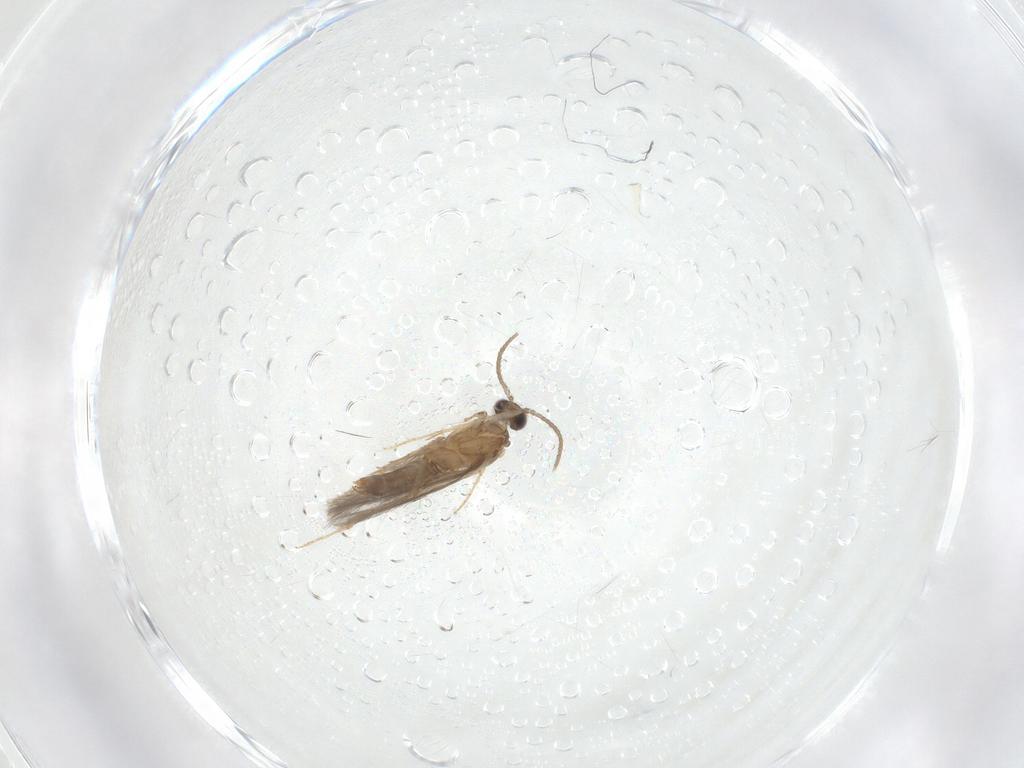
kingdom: Animalia
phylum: Arthropoda
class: Insecta
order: Trichoptera
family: Hydroptilidae
